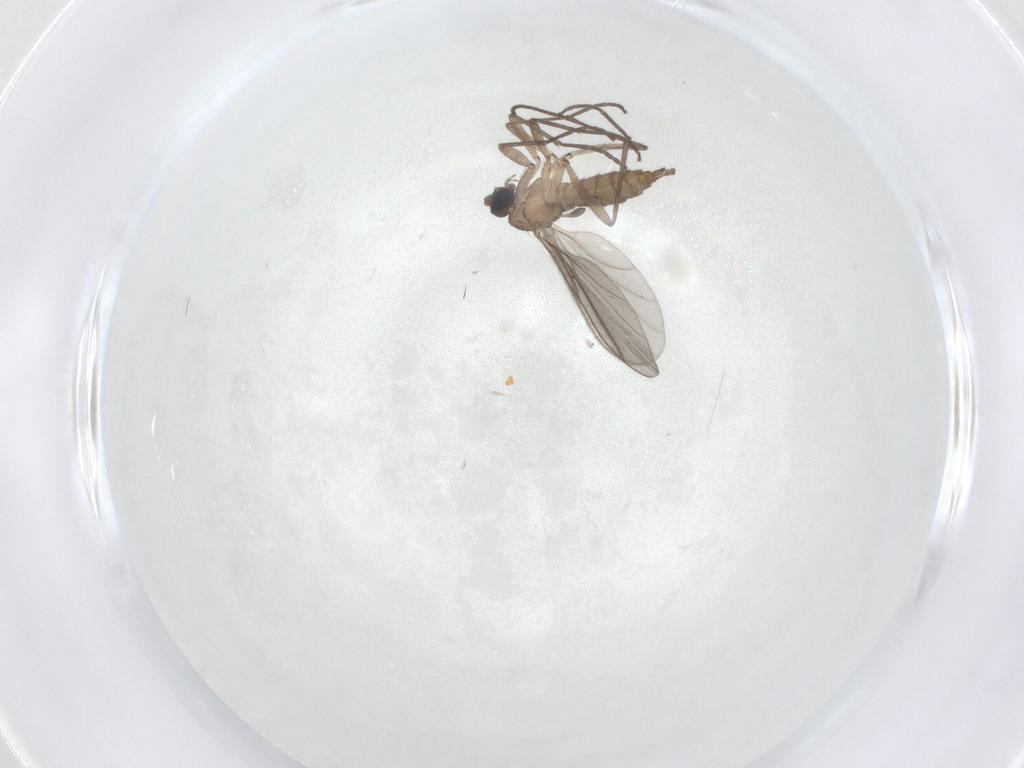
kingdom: Animalia
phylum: Arthropoda
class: Insecta
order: Diptera
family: Sciaridae
